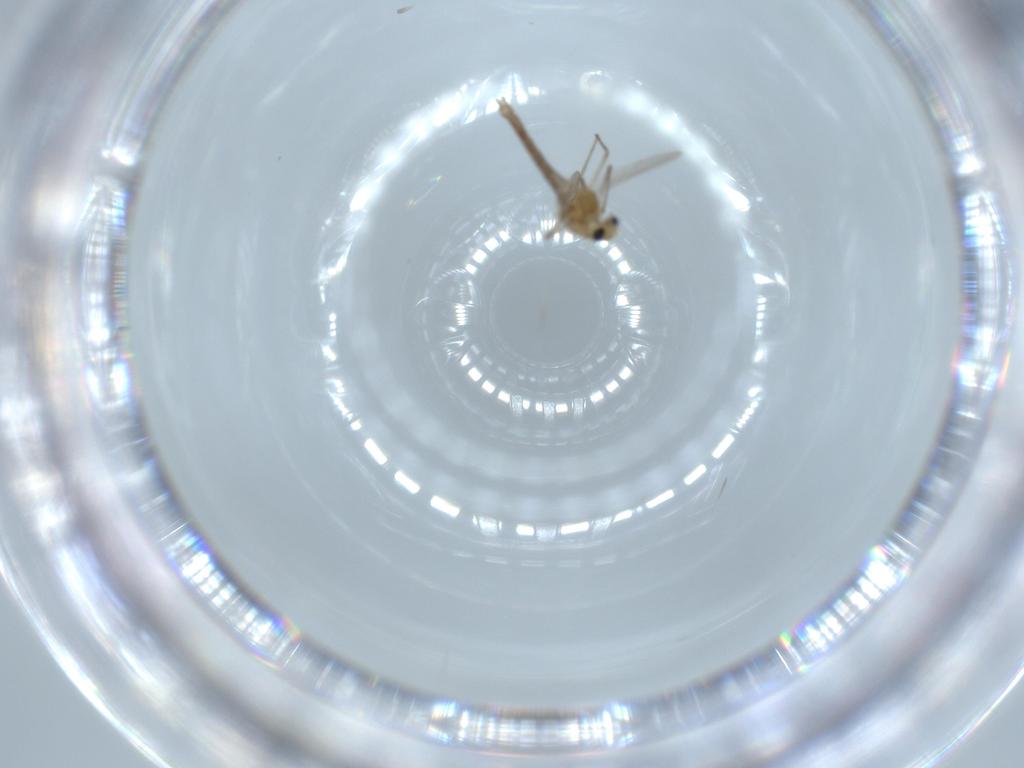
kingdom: Animalia
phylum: Arthropoda
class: Insecta
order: Diptera
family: Chironomidae
